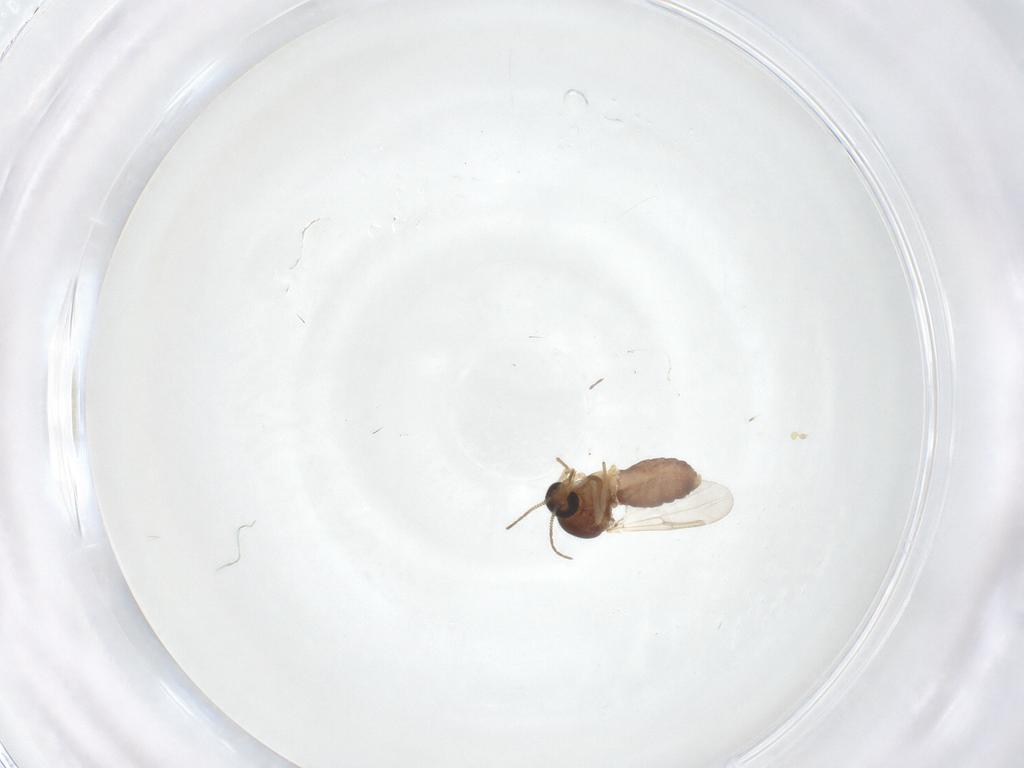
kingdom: Animalia
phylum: Arthropoda
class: Insecta
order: Diptera
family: Ceratopogonidae
